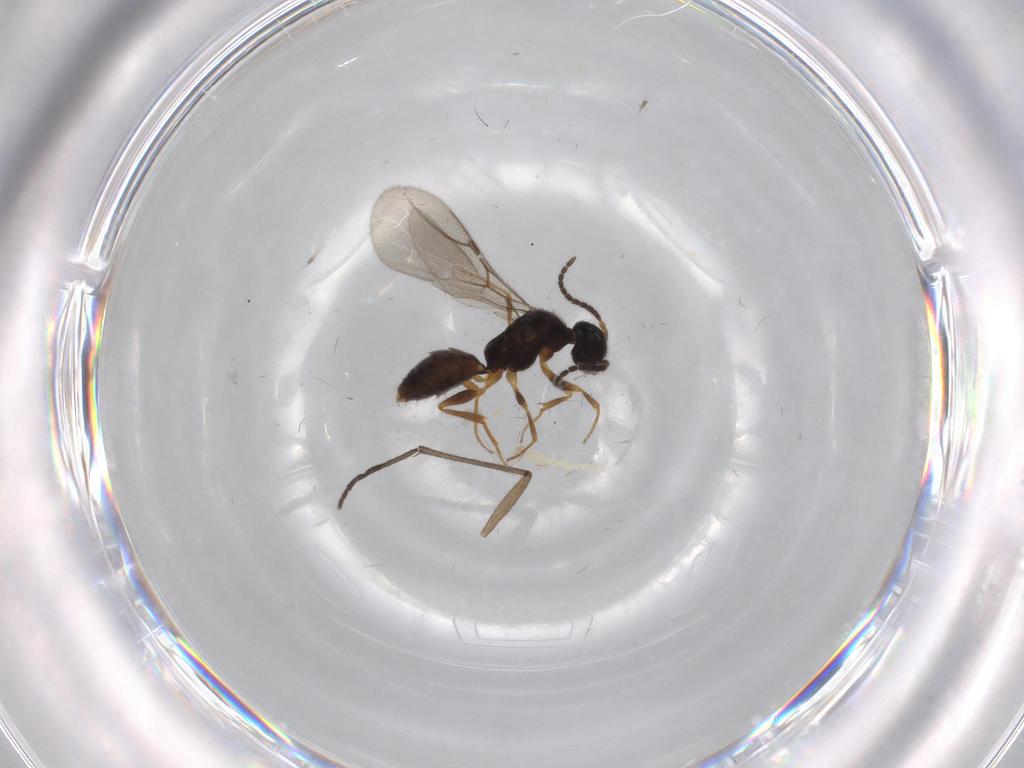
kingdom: Animalia
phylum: Arthropoda
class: Insecta
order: Hymenoptera
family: Bethylidae
